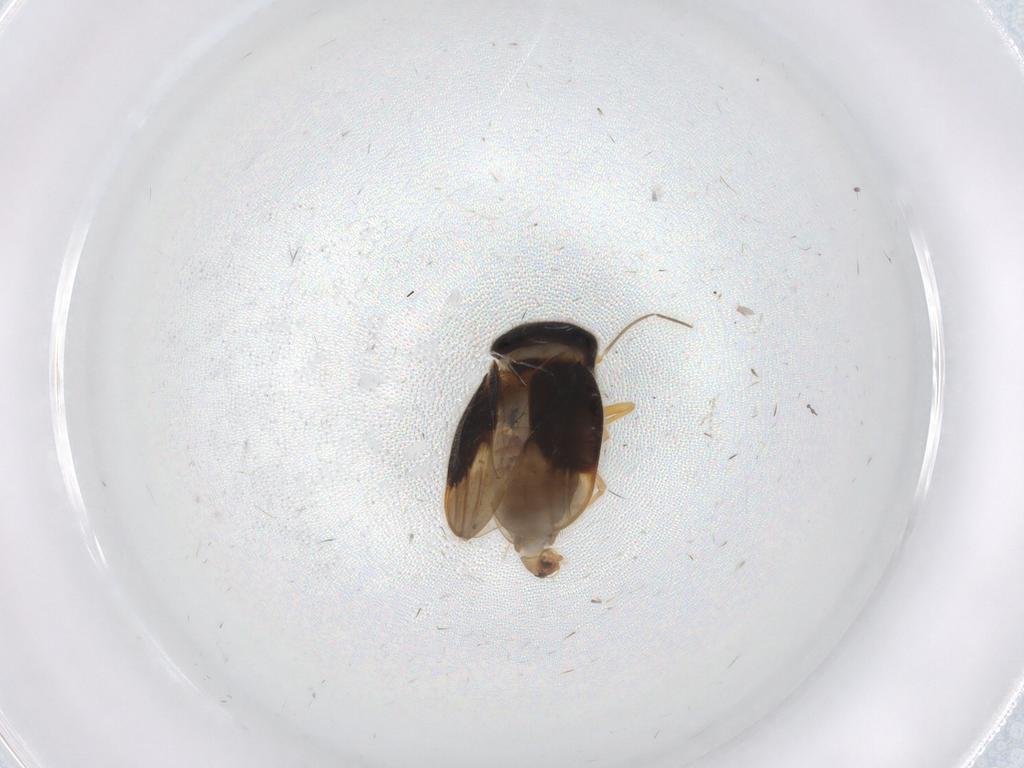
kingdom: Animalia
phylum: Arthropoda
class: Insecta
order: Hemiptera
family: Schizopteridae
